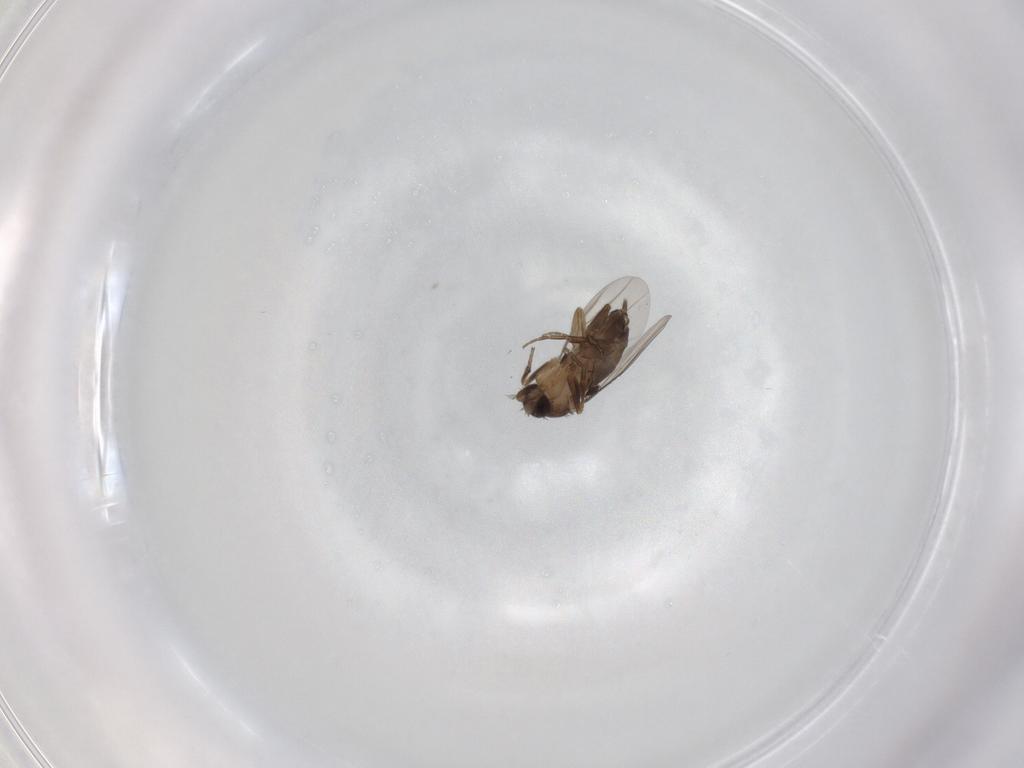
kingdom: Animalia
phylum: Arthropoda
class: Insecta
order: Diptera
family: Phoridae
